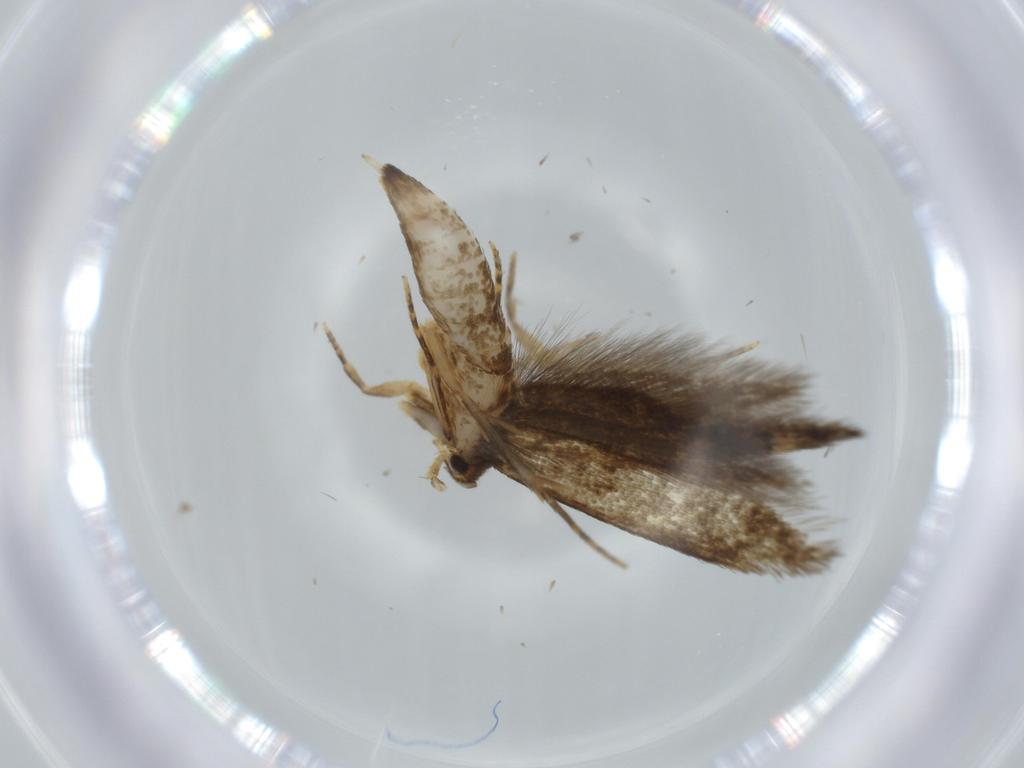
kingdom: Animalia
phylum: Arthropoda
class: Insecta
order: Lepidoptera
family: Tineidae
